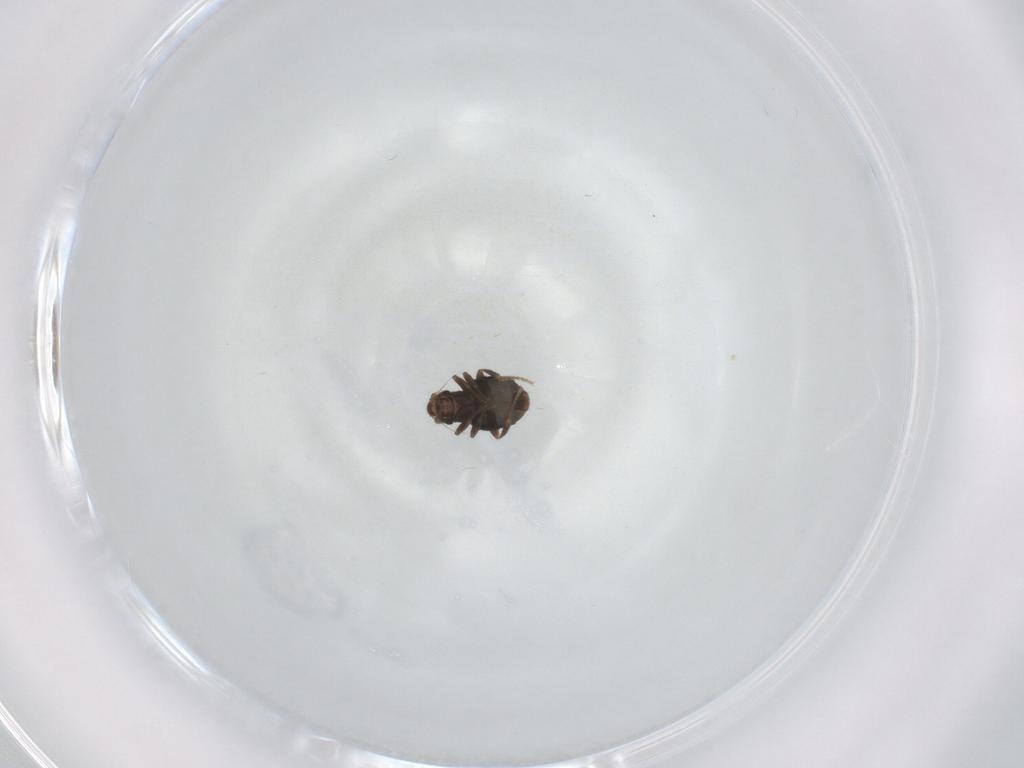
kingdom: Animalia
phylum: Arthropoda
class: Insecta
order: Diptera
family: Phoridae
